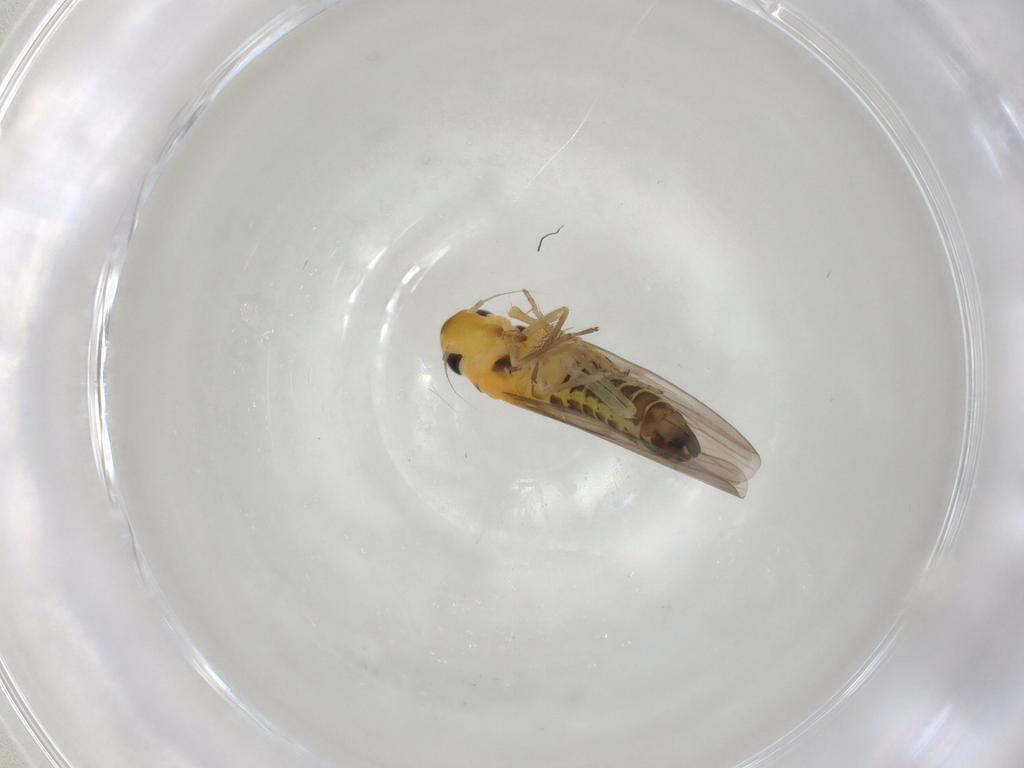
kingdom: Animalia
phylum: Arthropoda
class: Insecta
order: Hemiptera
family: Cicadellidae
